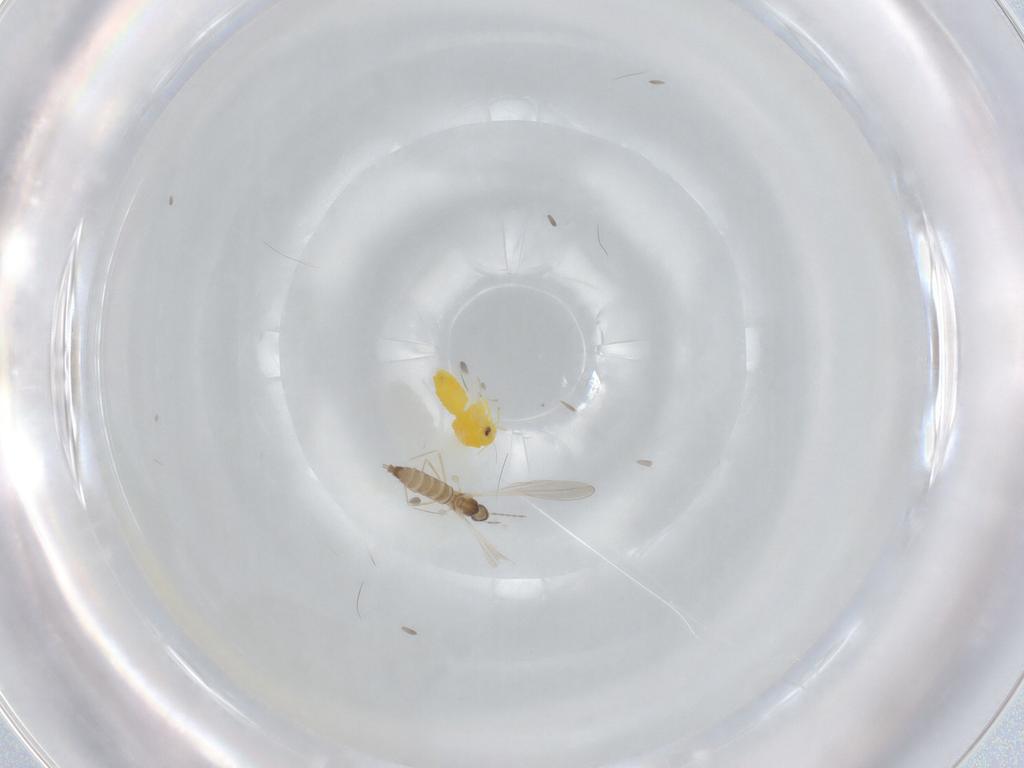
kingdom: Animalia
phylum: Arthropoda
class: Insecta
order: Diptera
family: Cecidomyiidae
